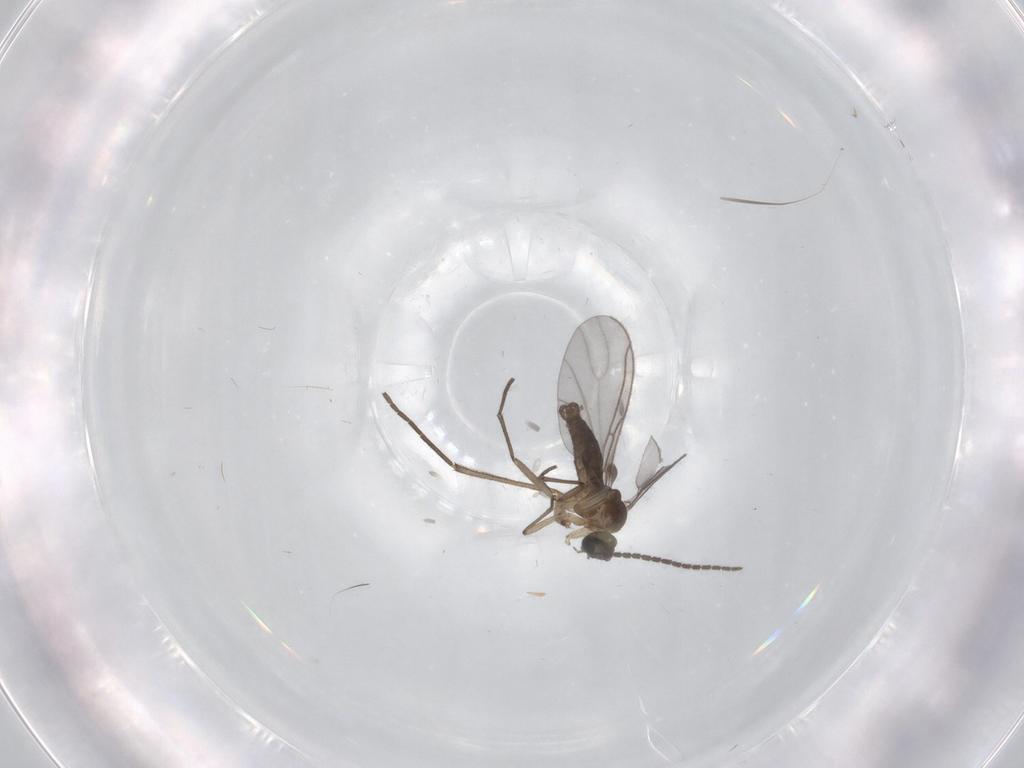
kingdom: Animalia
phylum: Arthropoda
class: Insecta
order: Diptera
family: Sciaridae
